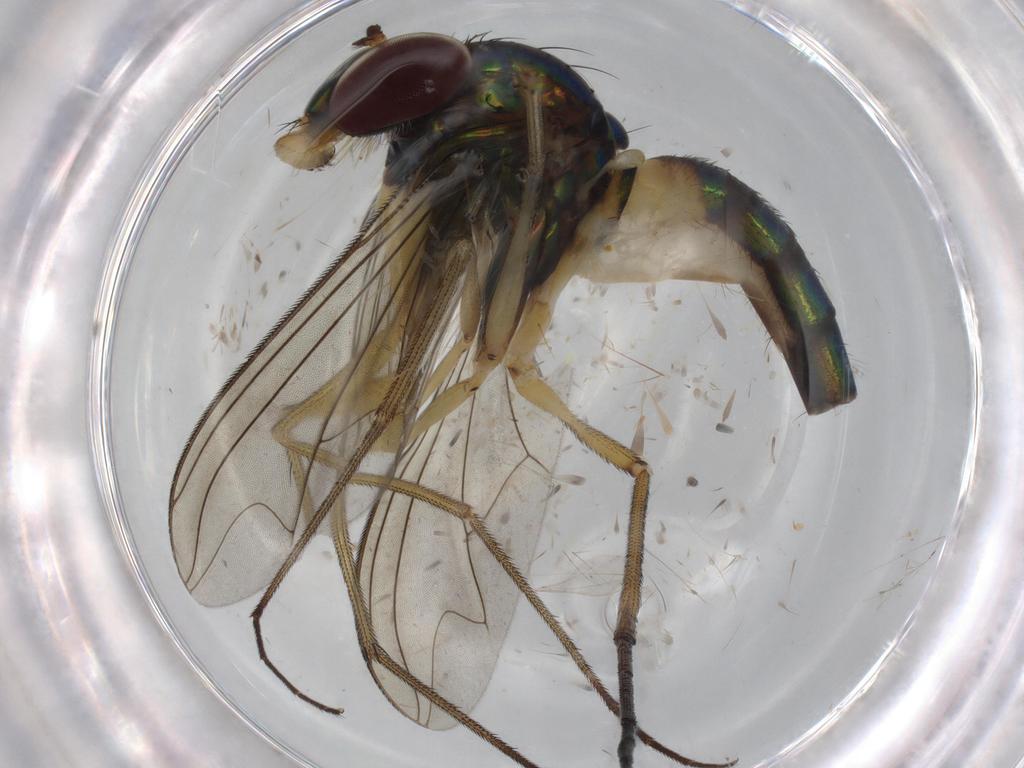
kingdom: Animalia
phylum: Arthropoda
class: Insecta
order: Diptera
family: Dolichopodidae
